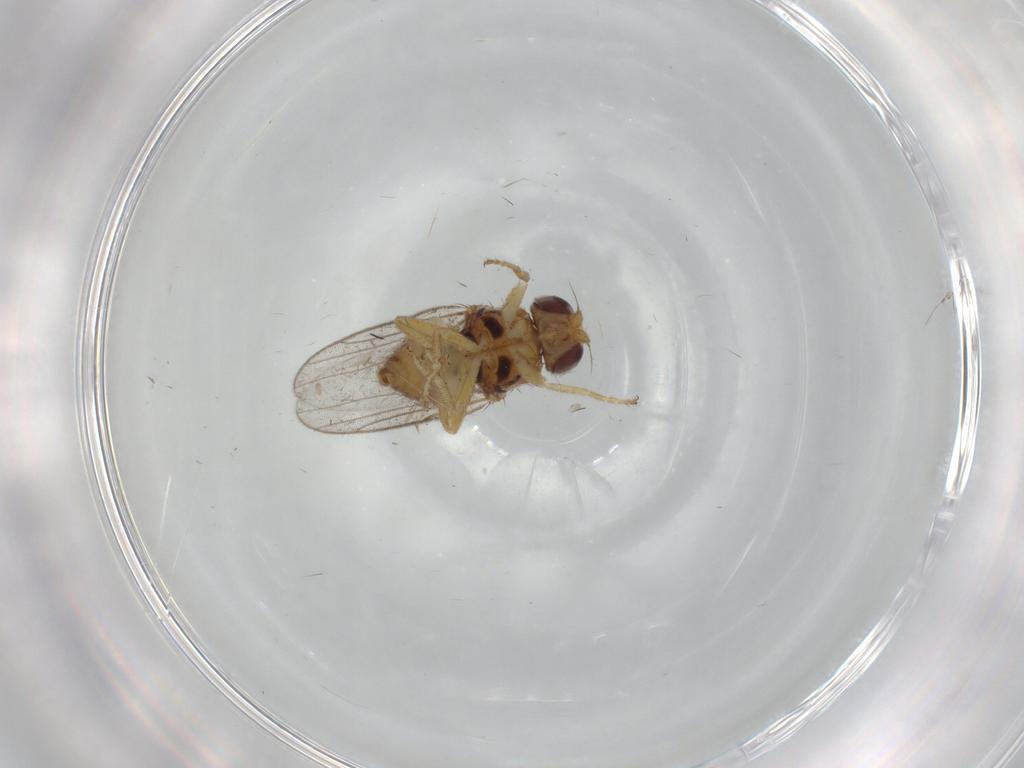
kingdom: Animalia
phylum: Arthropoda
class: Insecta
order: Diptera
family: Chloropidae
